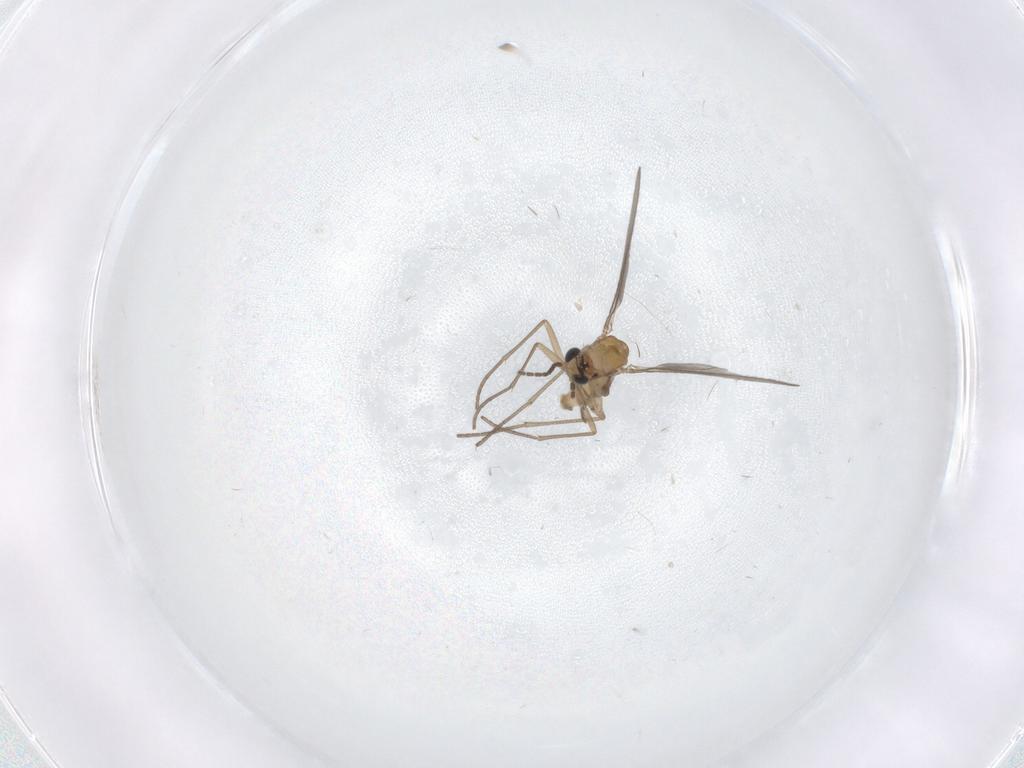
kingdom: Animalia
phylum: Arthropoda
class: Insecta
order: Diptera
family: Sciaridae
